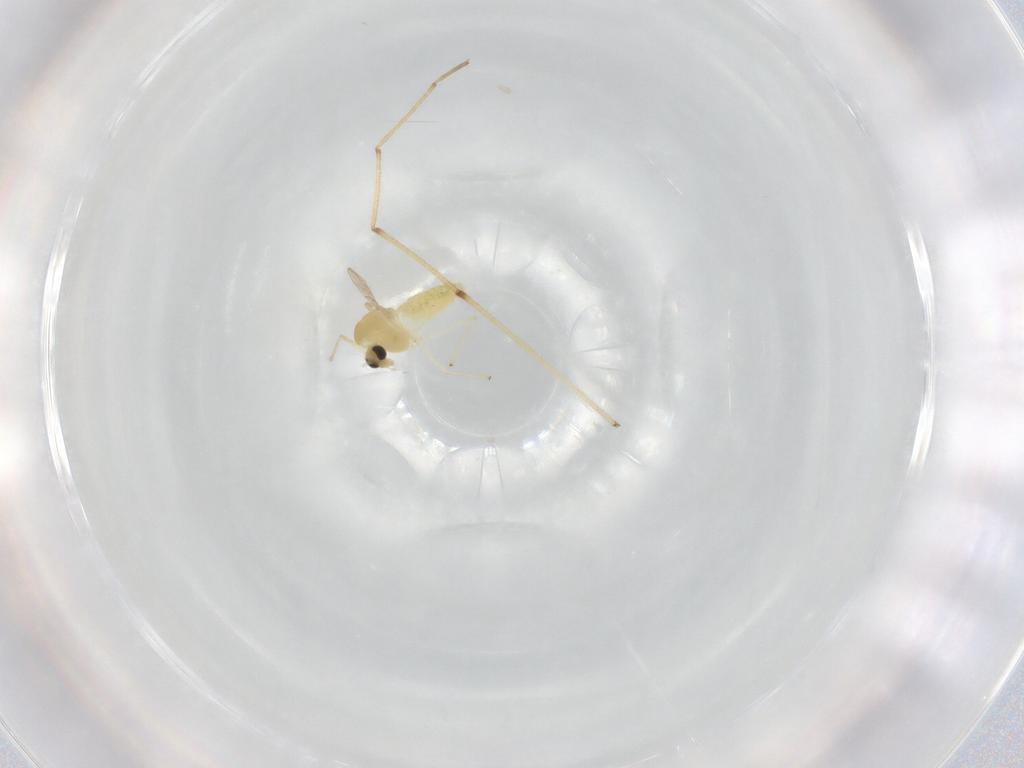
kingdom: Animalia
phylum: Arthropoda
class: Insecta
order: Diptera
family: Chironomidae
